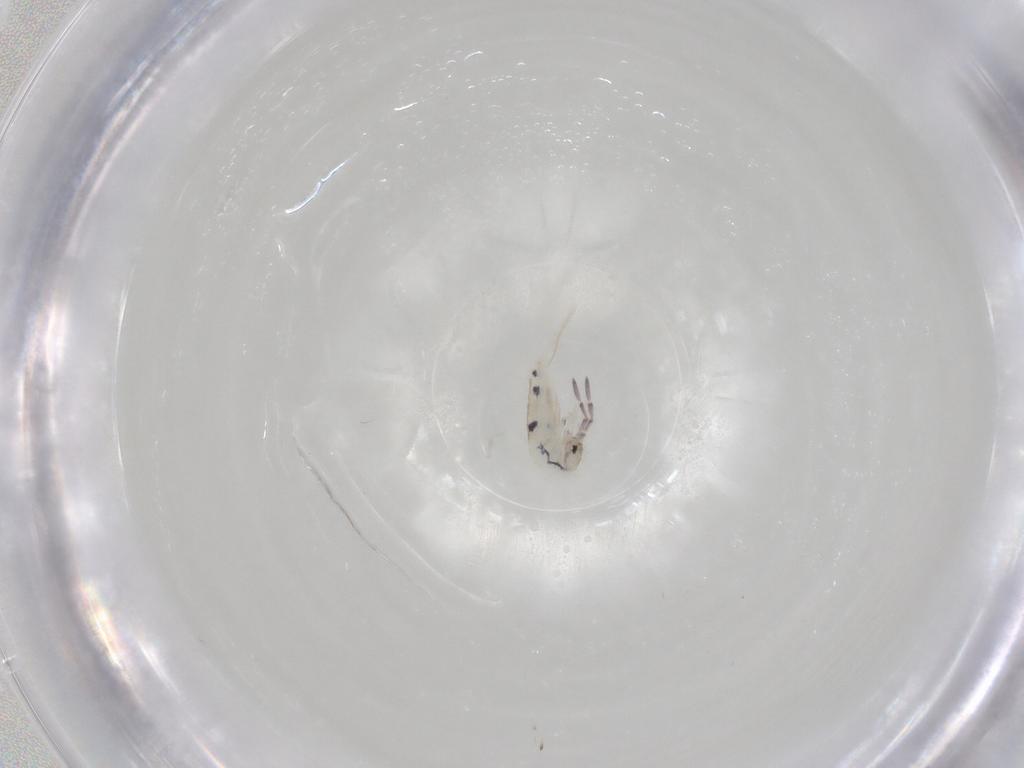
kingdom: Animalia
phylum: Arthropoda
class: Collembola
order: Entomobryomorpha
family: Entomobryidae
